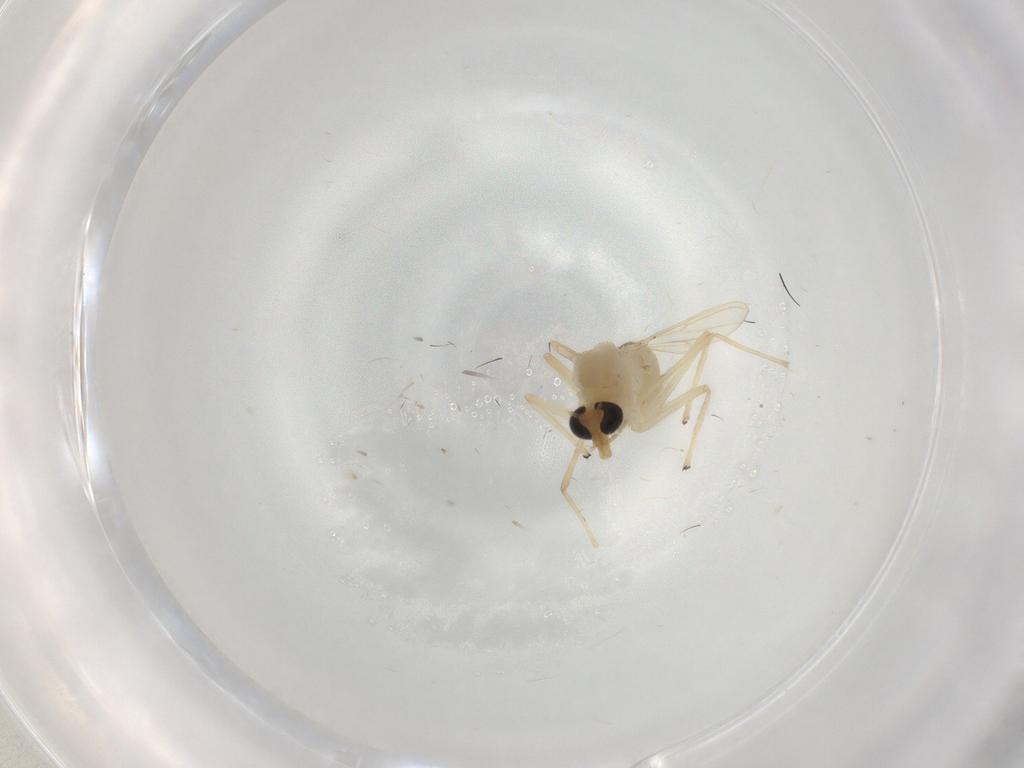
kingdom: Animalia
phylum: Arthropoda
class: Insecta
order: Diptera
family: Chironomidae
